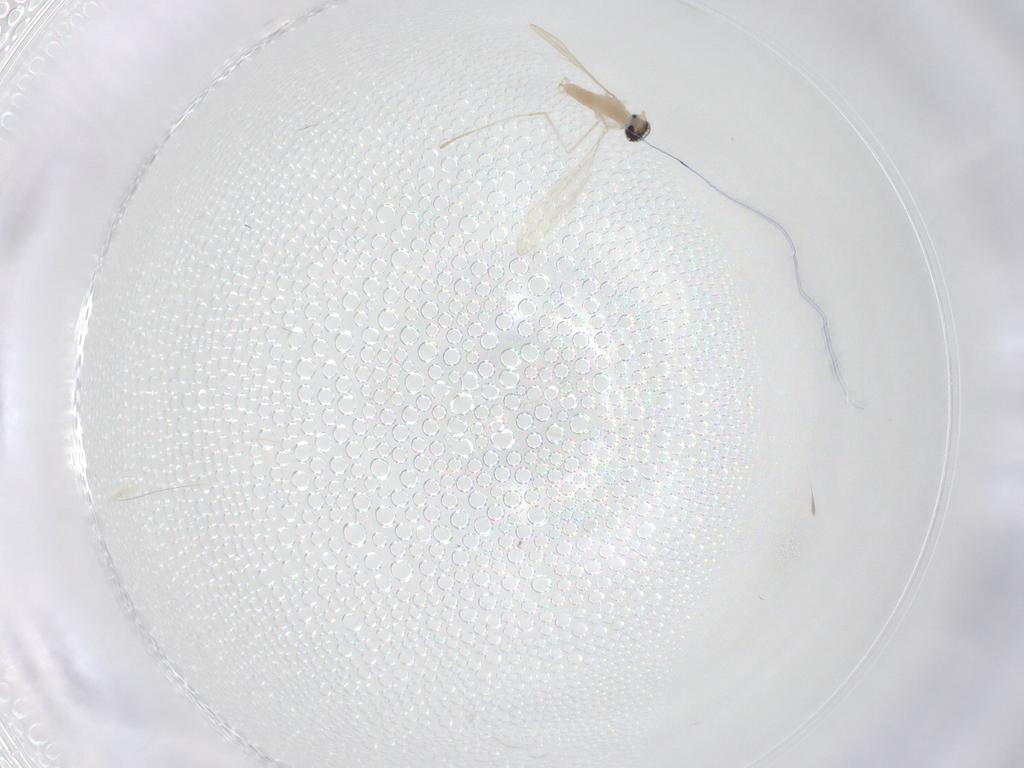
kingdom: Animalia
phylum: Arthropoda
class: Insecta
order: Diptera
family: Cecidomyiidae
